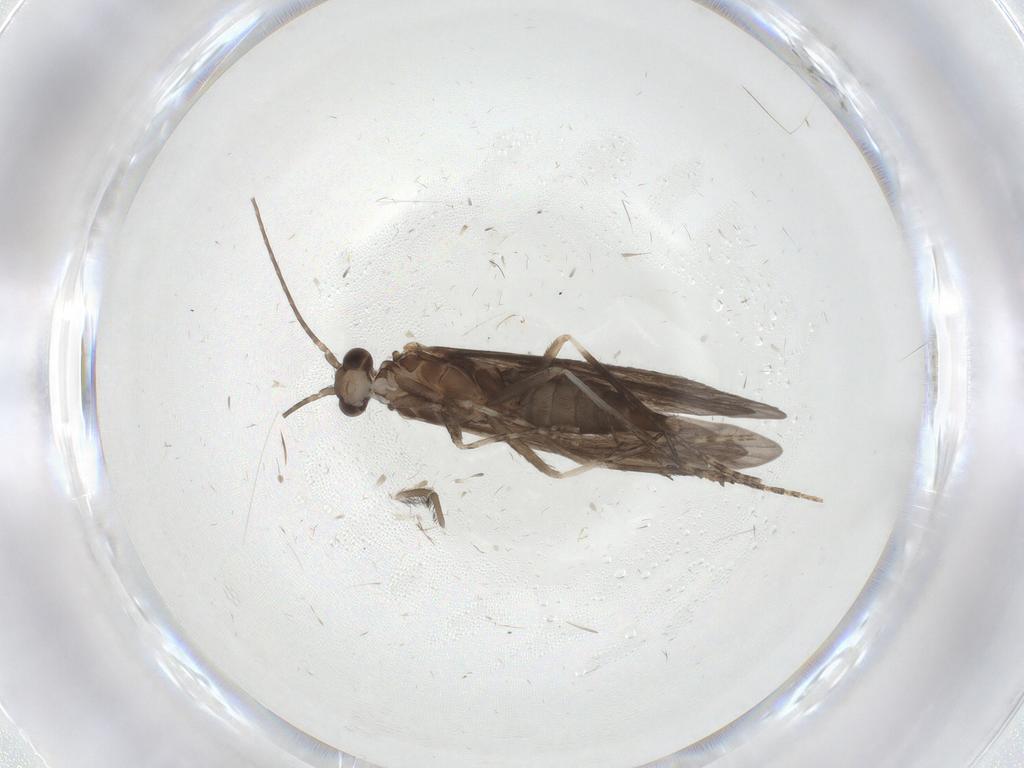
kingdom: Animalia
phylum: Arthropoda
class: Insecta
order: Trichoptera
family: Xiphocentronidae
